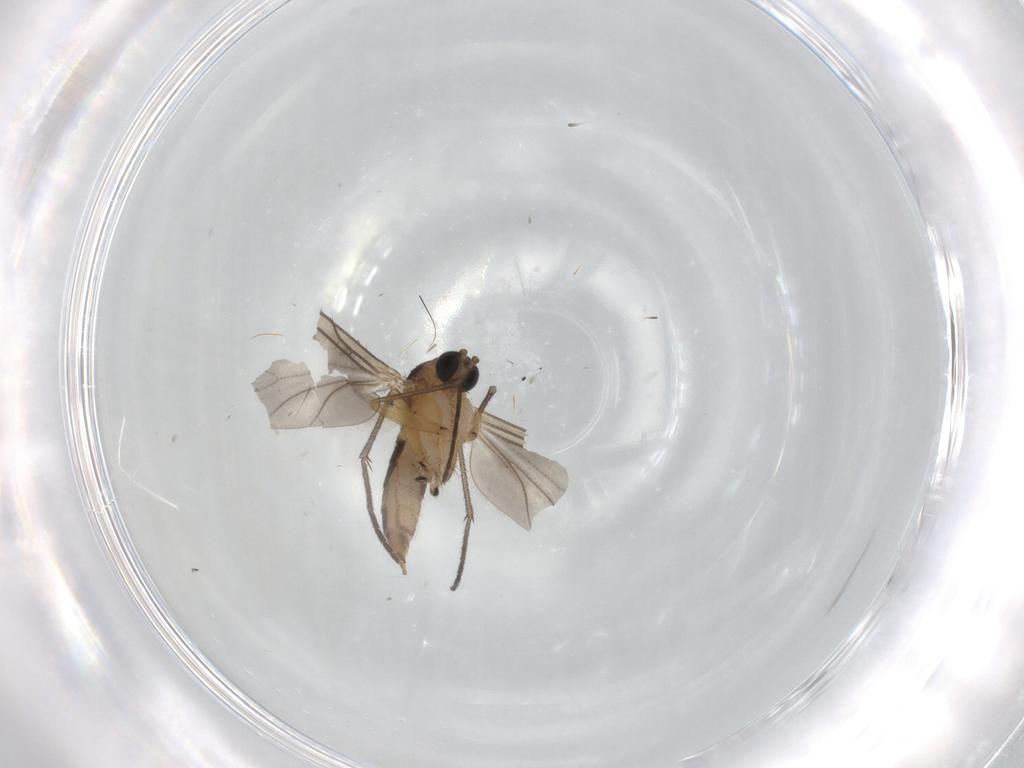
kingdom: Animalia
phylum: Arthropoda
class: Insecta
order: Diptera
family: Sciaridae
